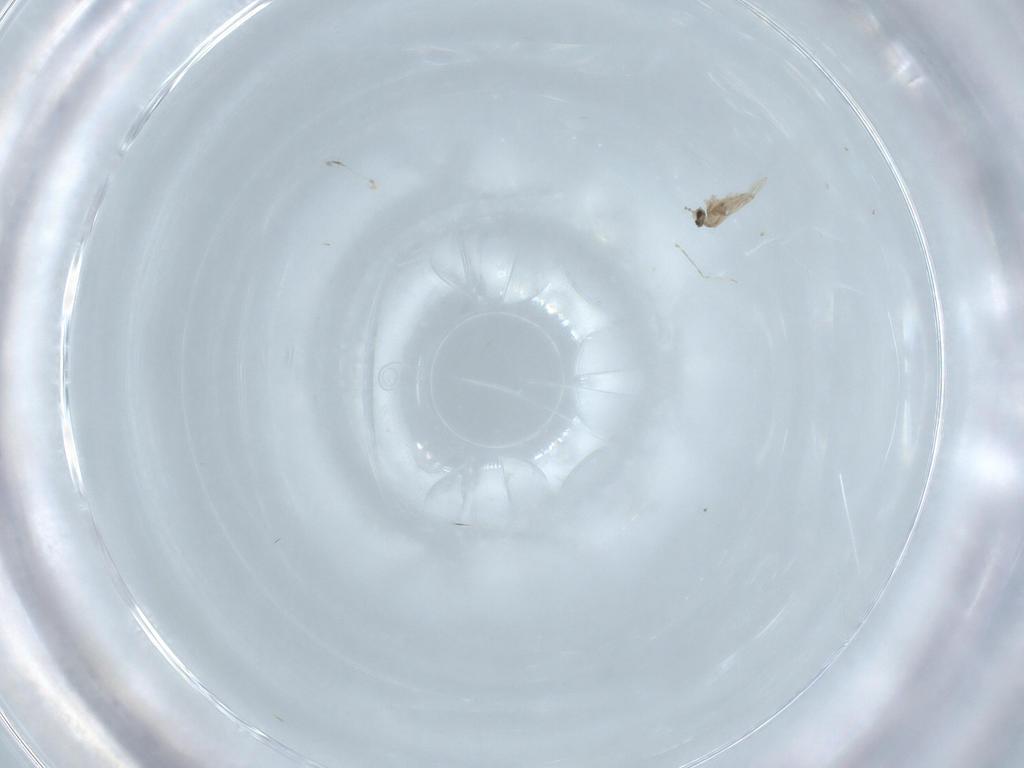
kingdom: Animalia
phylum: Arthropoda
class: Insecta
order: Diptera
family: Cecidomyiidae
